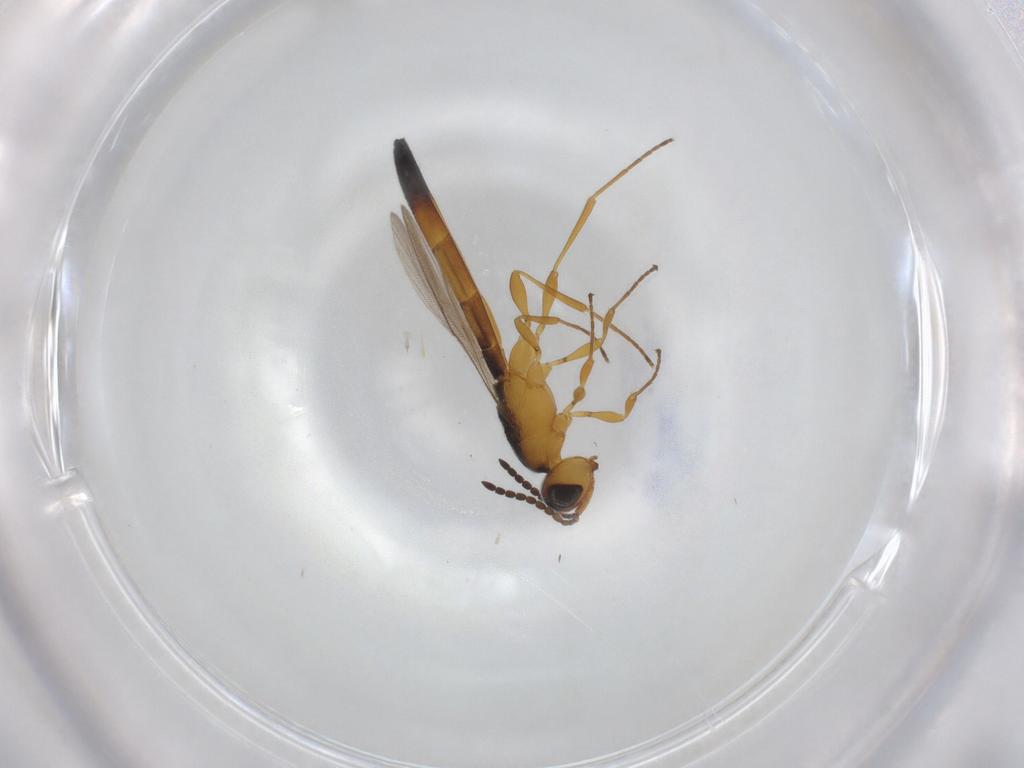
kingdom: Animalia
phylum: Arthropoda
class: Insecta
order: Hymenoptera
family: Scelionidae
